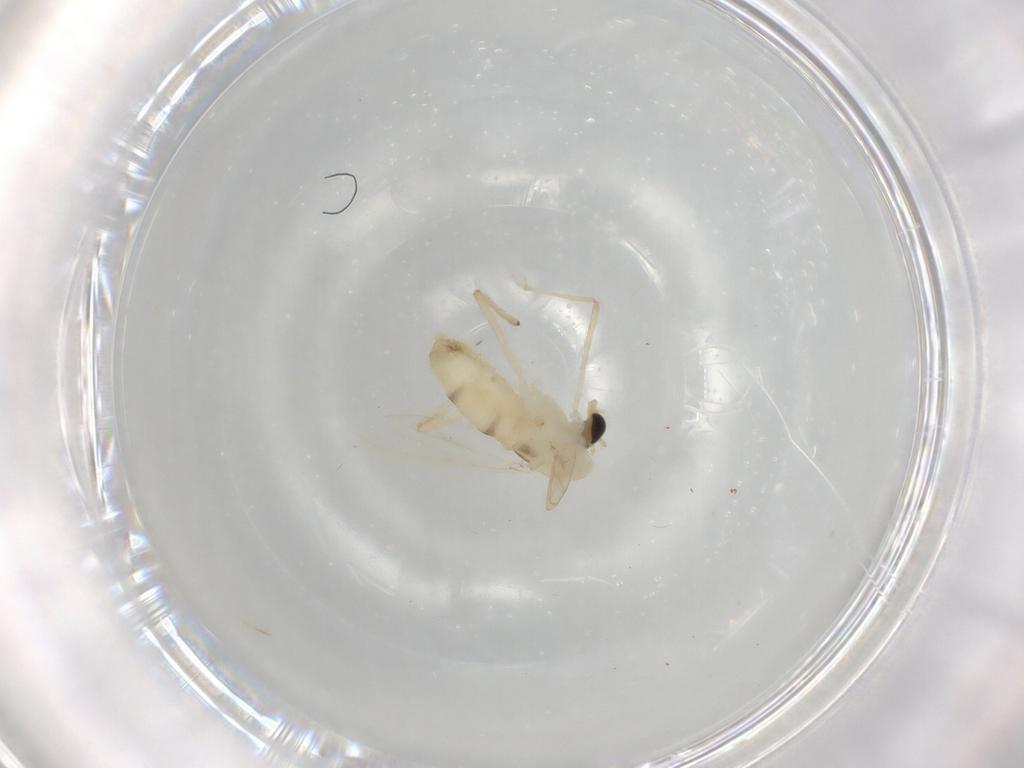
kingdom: Animalia
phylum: Arthropoda
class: Insecta
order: Diptera
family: Chironomidae
